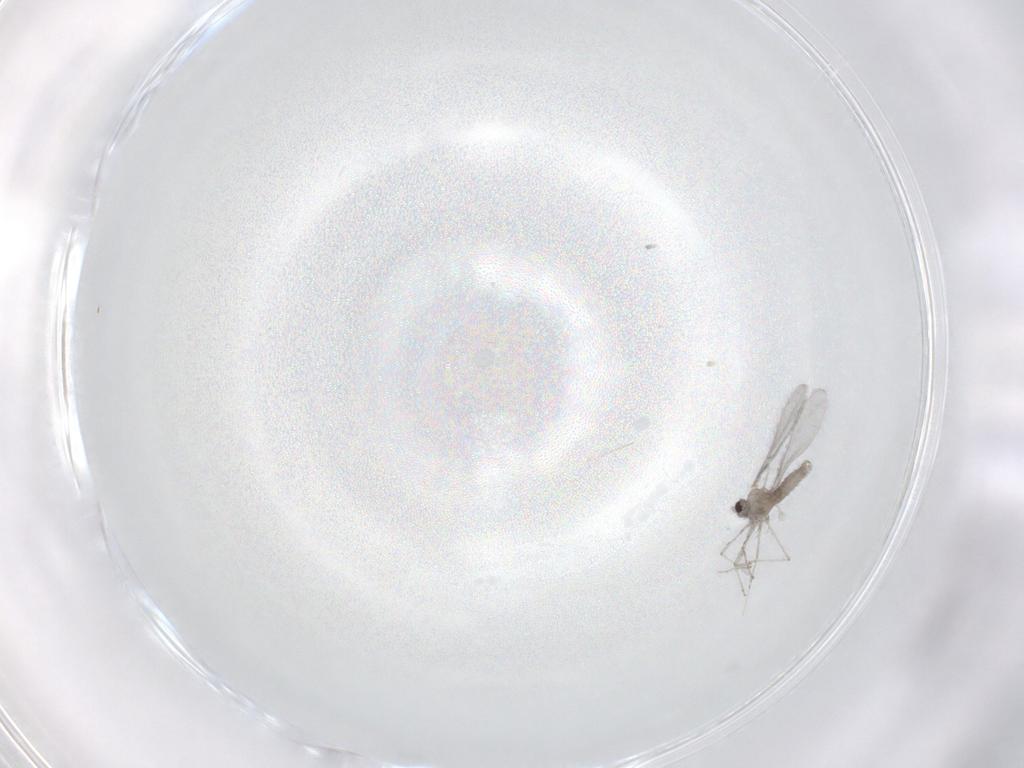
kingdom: Animalia
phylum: Arthropoda
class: Insecta
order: Diptera
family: Cecidomyiidae
